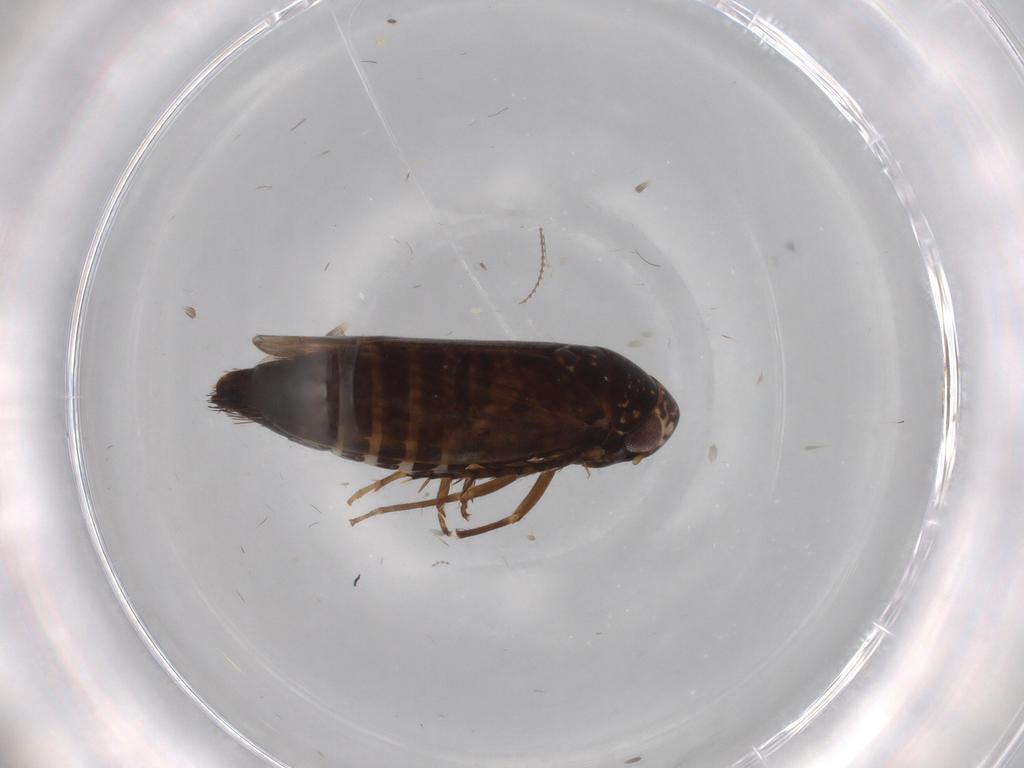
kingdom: Animalia
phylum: Arthropoda
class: Insecta
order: Hemiptera
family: Cicadellidae
